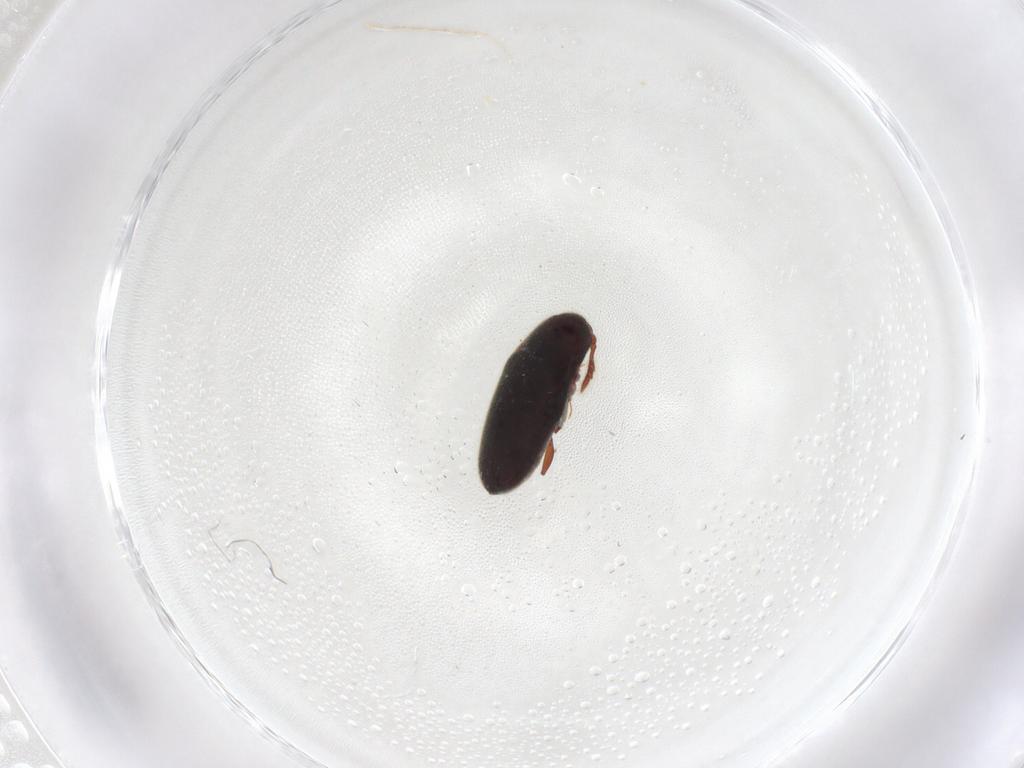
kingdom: Animalia
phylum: Arthropoda
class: Insecta
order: Coleoptera
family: Throscidae
